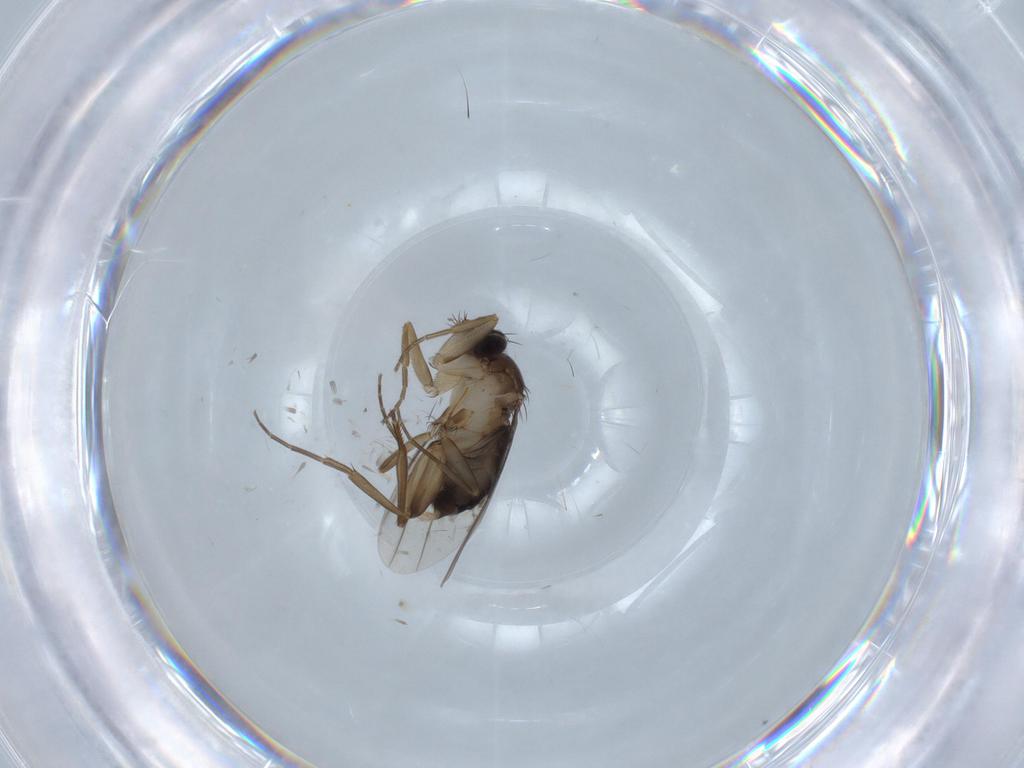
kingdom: Animalia
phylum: Arthropoda
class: Insecta
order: Diptera
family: Phoridae
